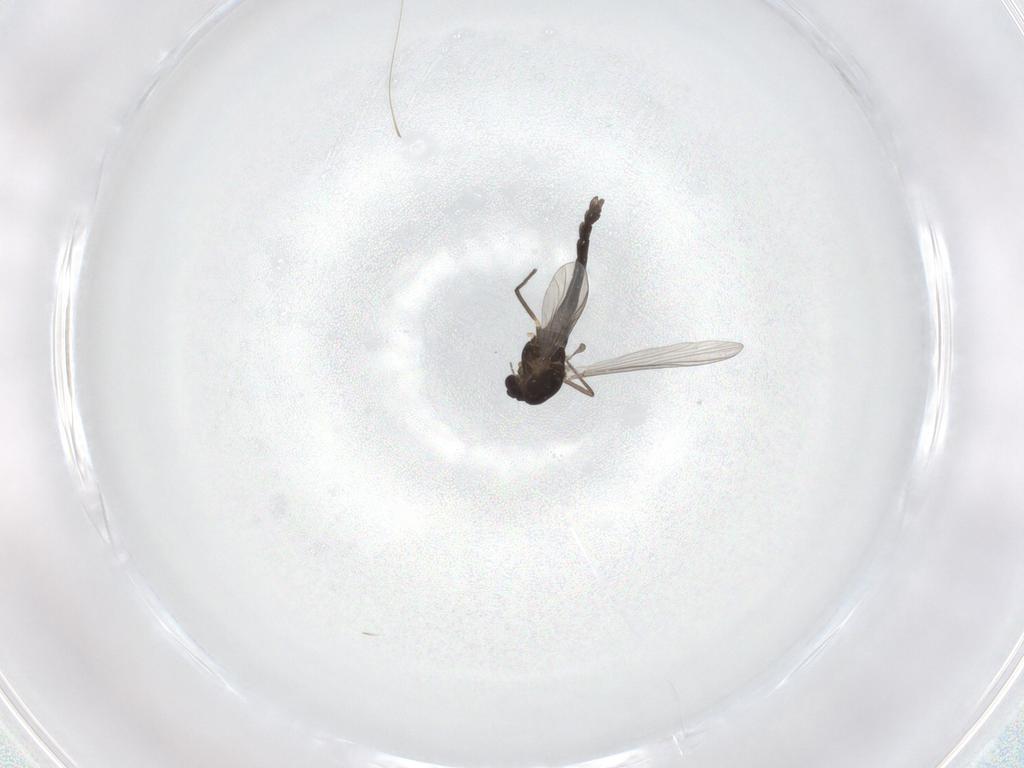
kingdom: Animalia
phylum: Arthropoda
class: Insecta
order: Diptera
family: Chironomidae
